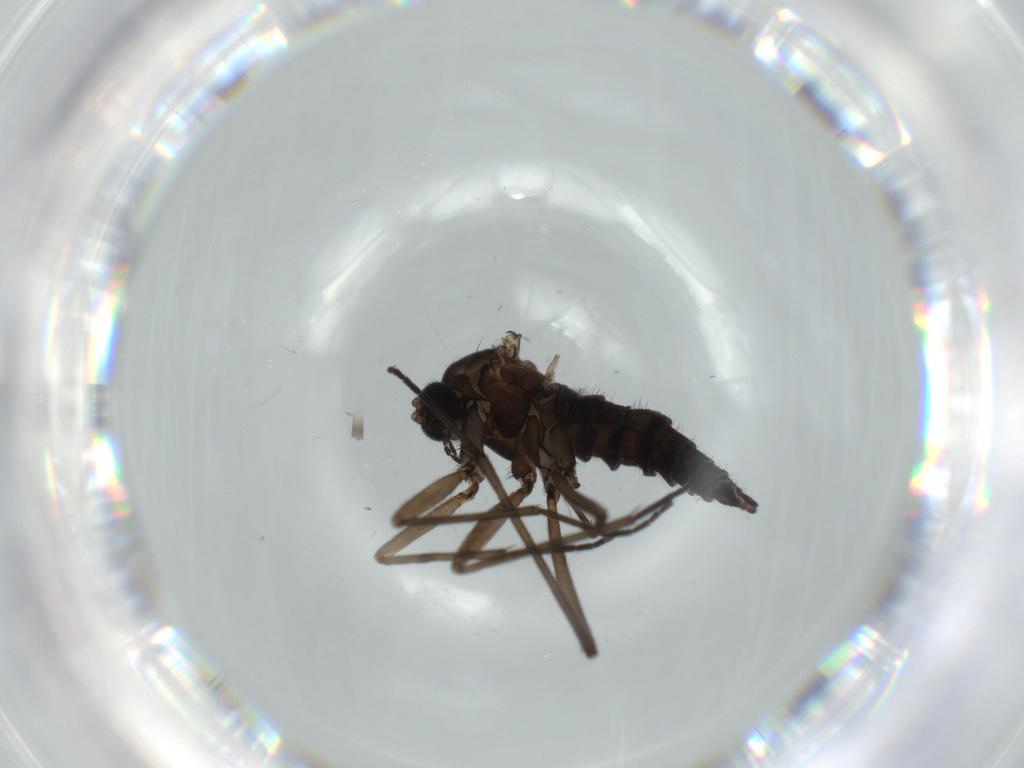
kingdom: Animalia
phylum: Arthropoda
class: Insecta
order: Diptera
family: Sciaridae
